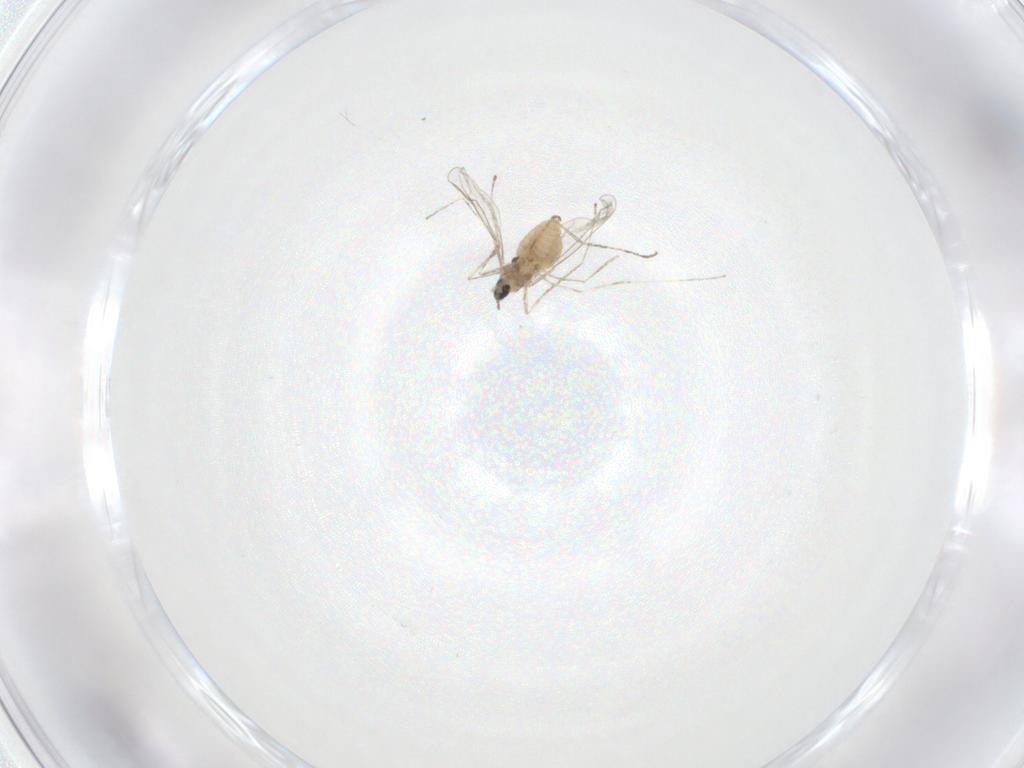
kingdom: Animalia
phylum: Arthropoda
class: Insecta
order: Diptera
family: Cecidomyiidae
